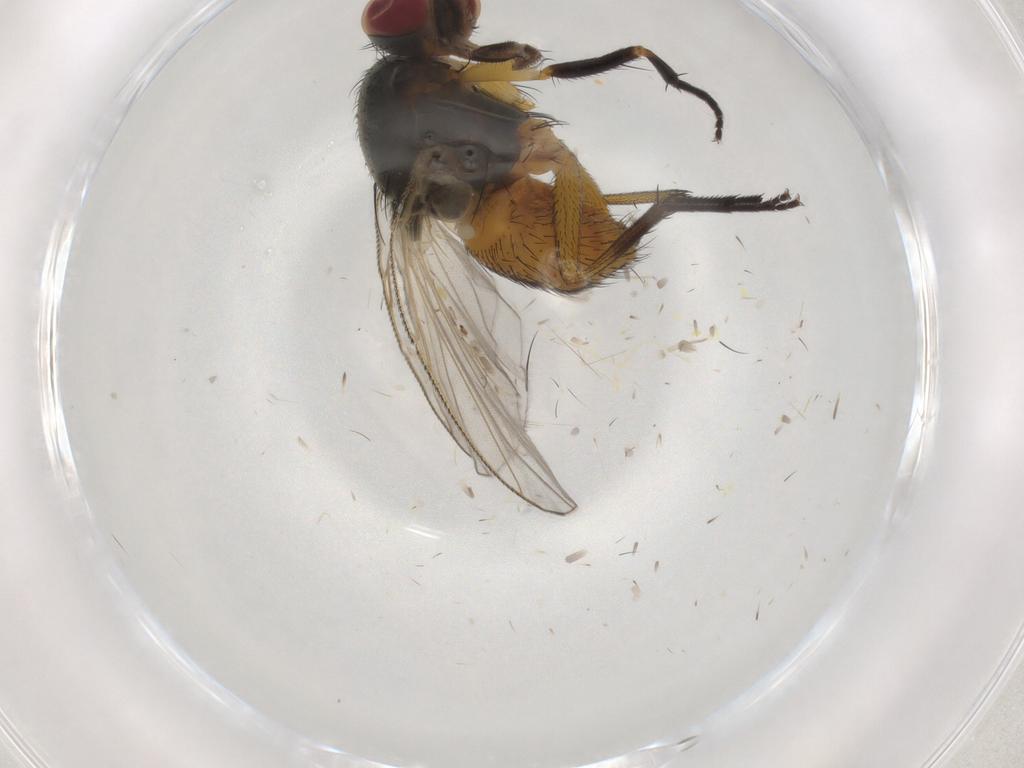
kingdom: Animalia
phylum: Arthropoda
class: Insecta
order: Diptera
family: Muscidae
